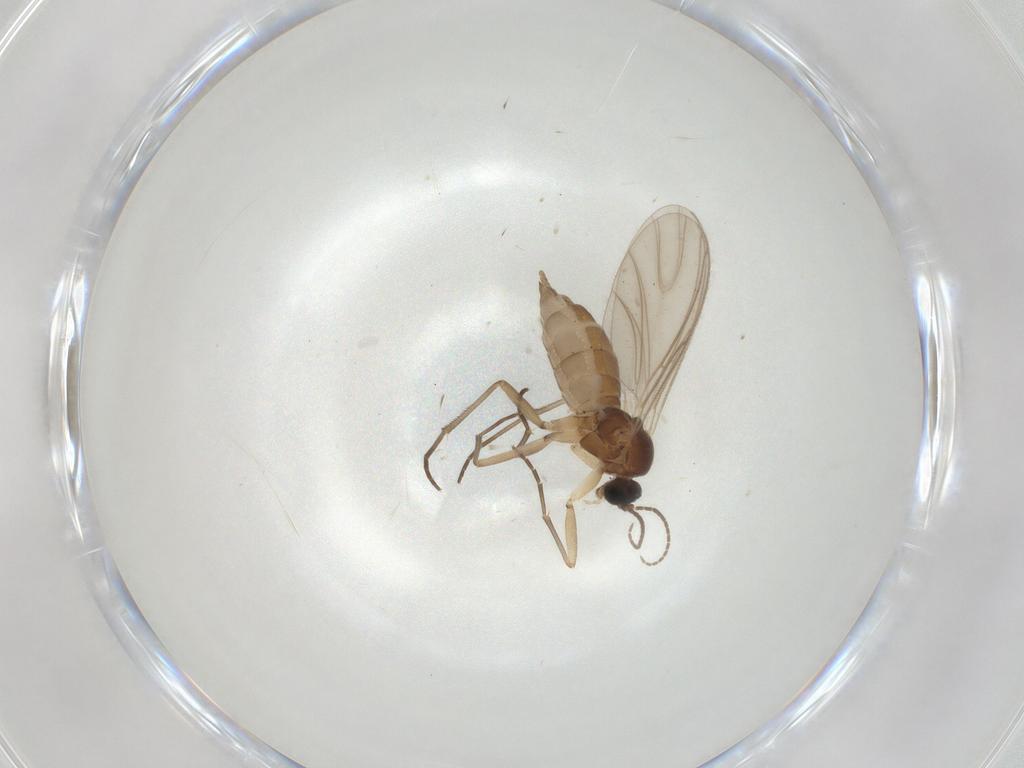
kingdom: Animalia
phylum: Arthropoda
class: Insecta
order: Diptera
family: Sciaridae
